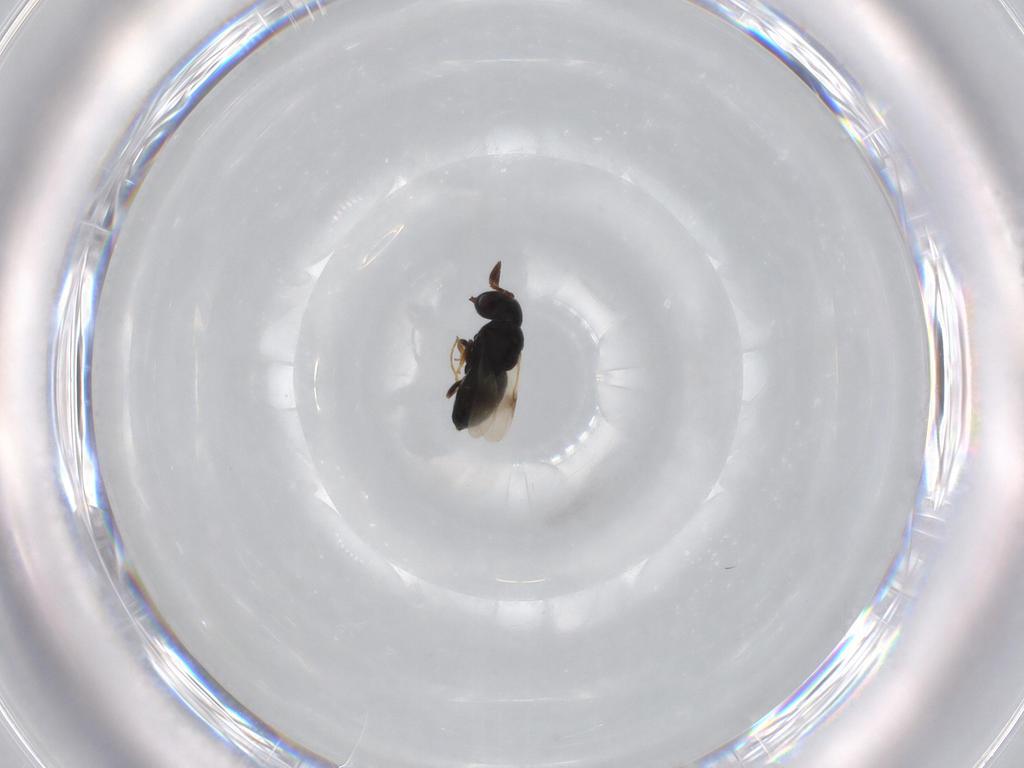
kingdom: Animalia
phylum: Arthropoda
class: Insecta
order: Hymenoptera
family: Scelionidae
